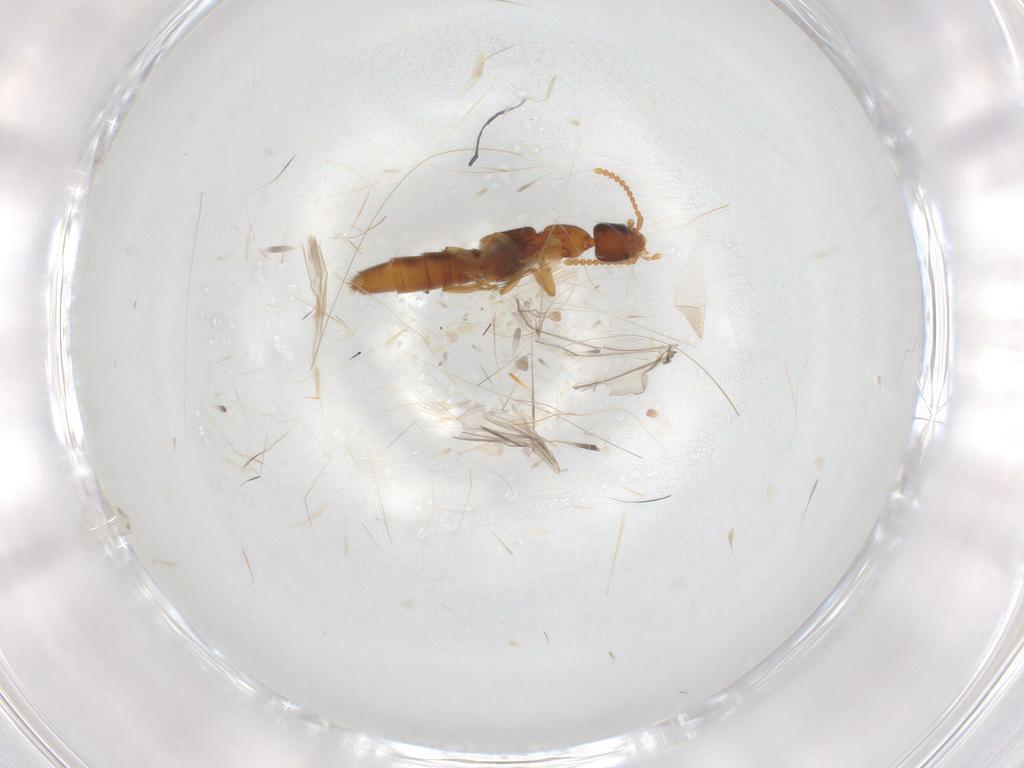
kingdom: Animalia
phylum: Arthropoda
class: Insecta
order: Coleoptera
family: Staphylinidae
